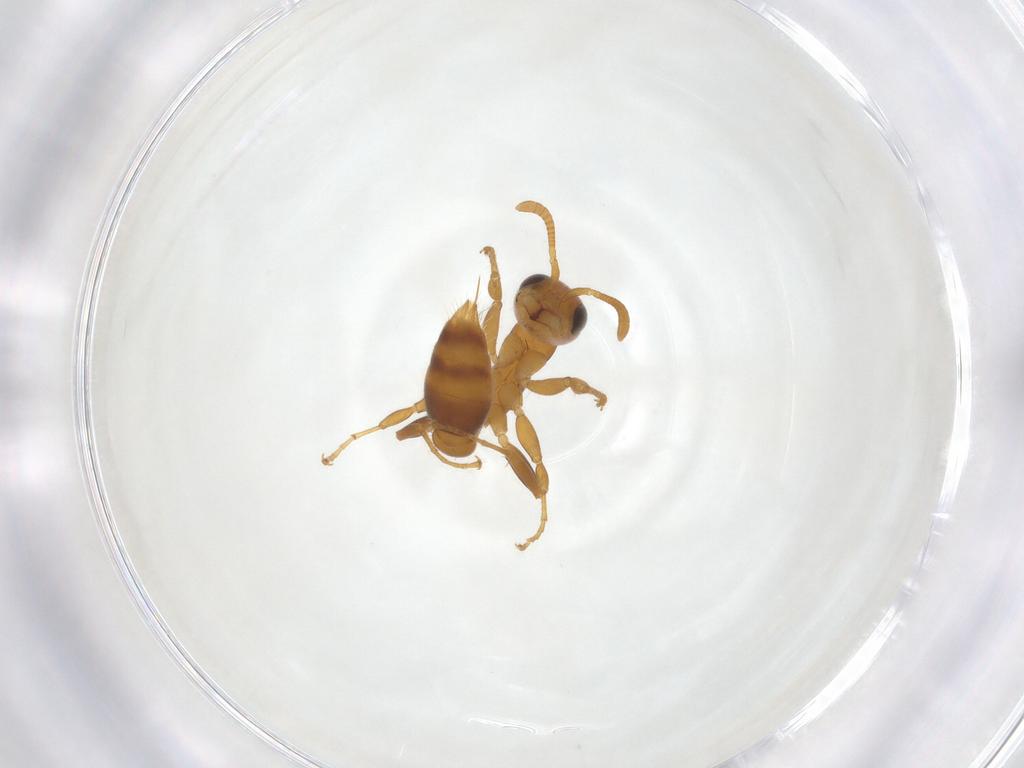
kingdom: Animalia
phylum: Arthropoda
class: Insecta
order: Hymenoptera
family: Formicidae
